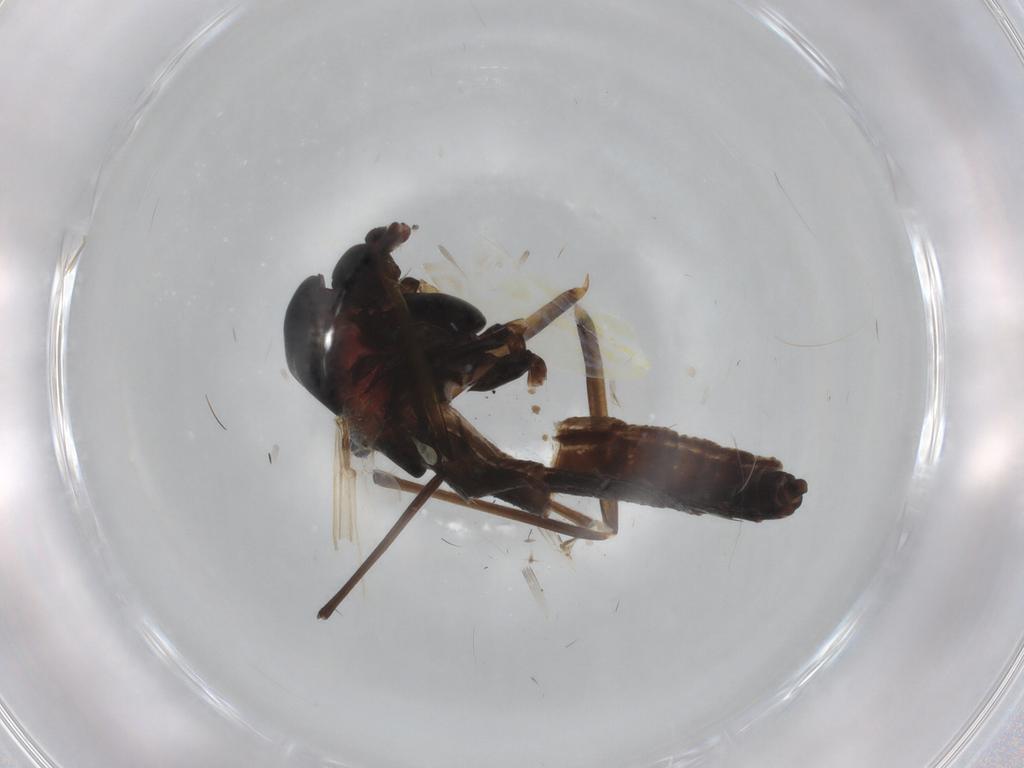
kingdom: Animalia
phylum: Arthropoda
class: Insecta
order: Diptera
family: Chironomidae
